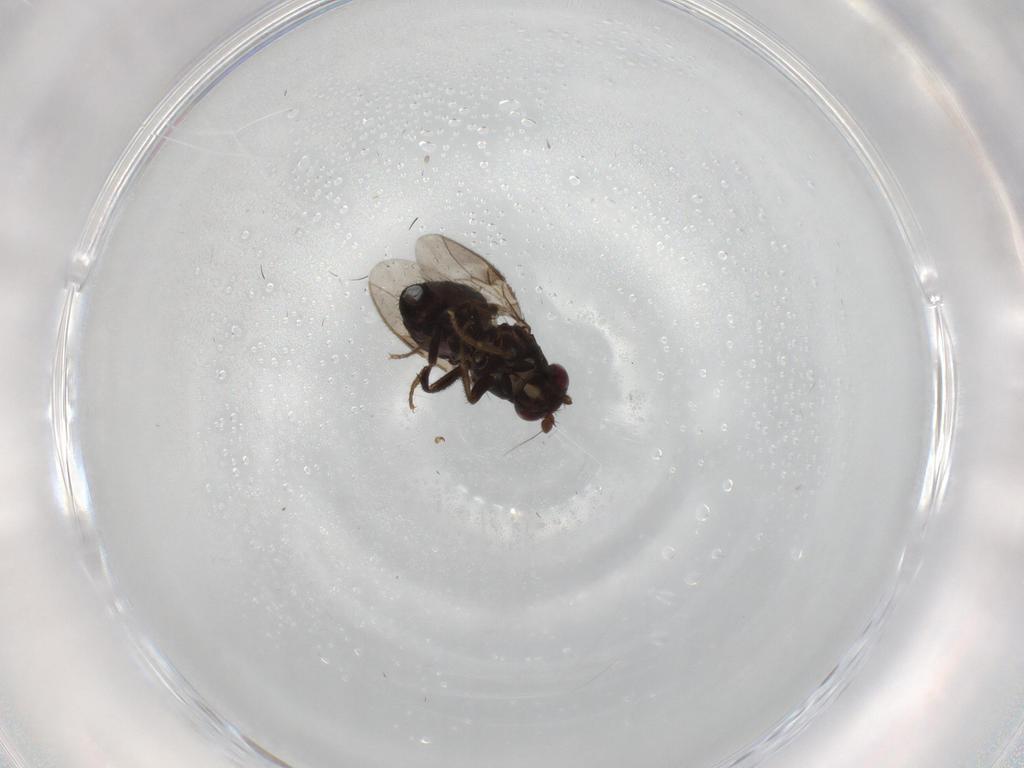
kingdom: Animalia
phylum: Arthropoda
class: Insecta
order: Diptera
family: Sphaeroceridae
